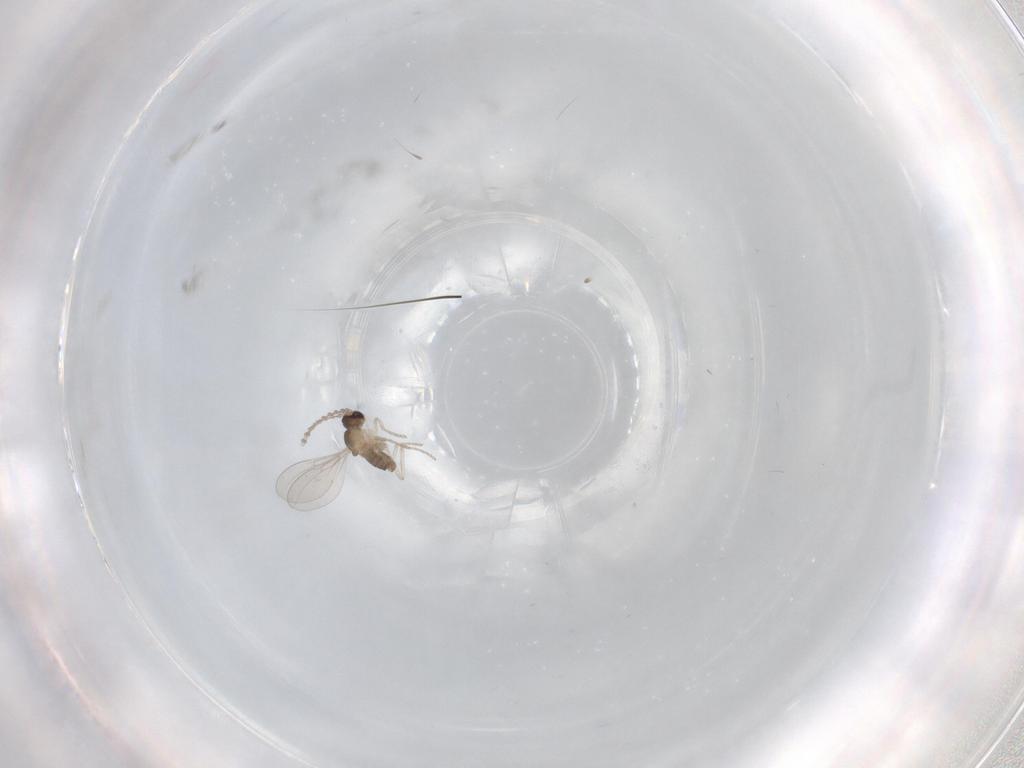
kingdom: Animalia
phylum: Arthropoda
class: Insecta
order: Diptera
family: Cecidomyiidae
